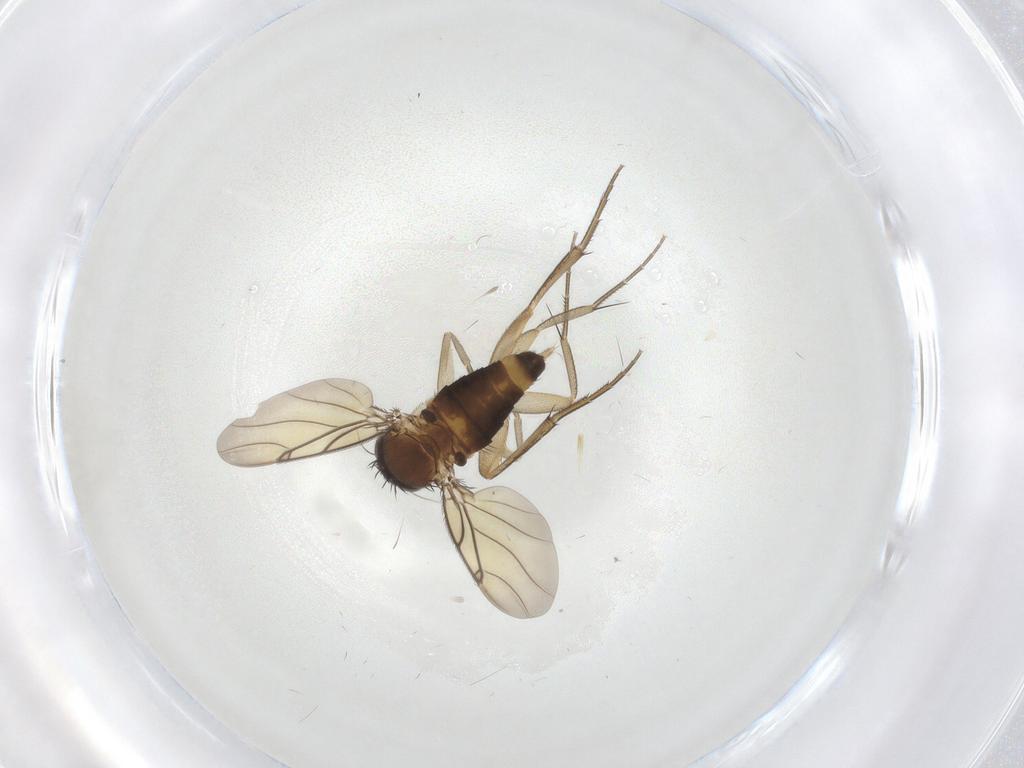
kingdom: Animalia
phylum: Arthropoda
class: Insecta
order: Diptera
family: Phoridae
